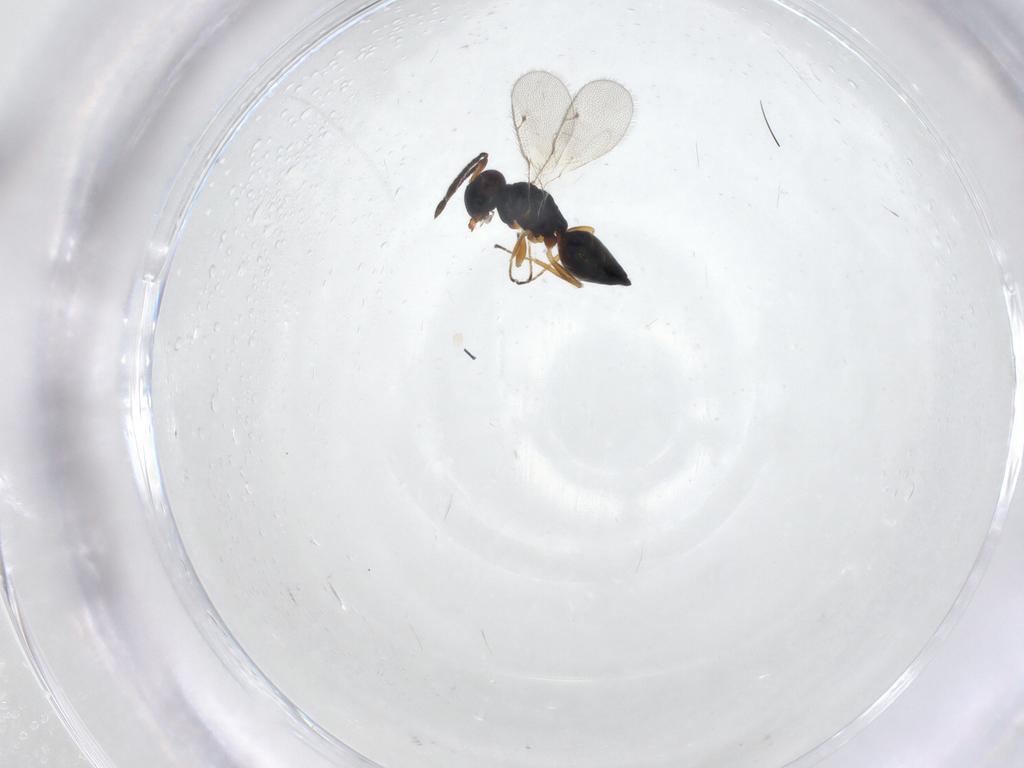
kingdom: Animalia
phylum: Arthropoda
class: Insecta
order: Hymenoptera
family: Pteromalidae
